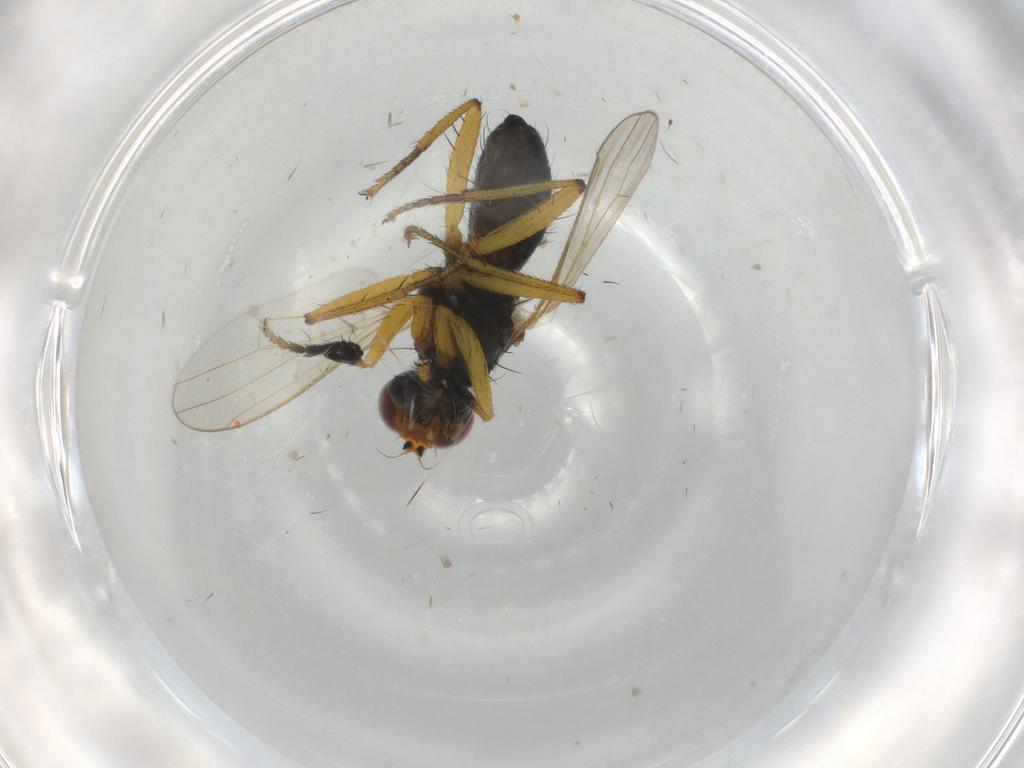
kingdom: Animalia
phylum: Arthropoda
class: Insecta
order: Diptera
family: Muscidae
